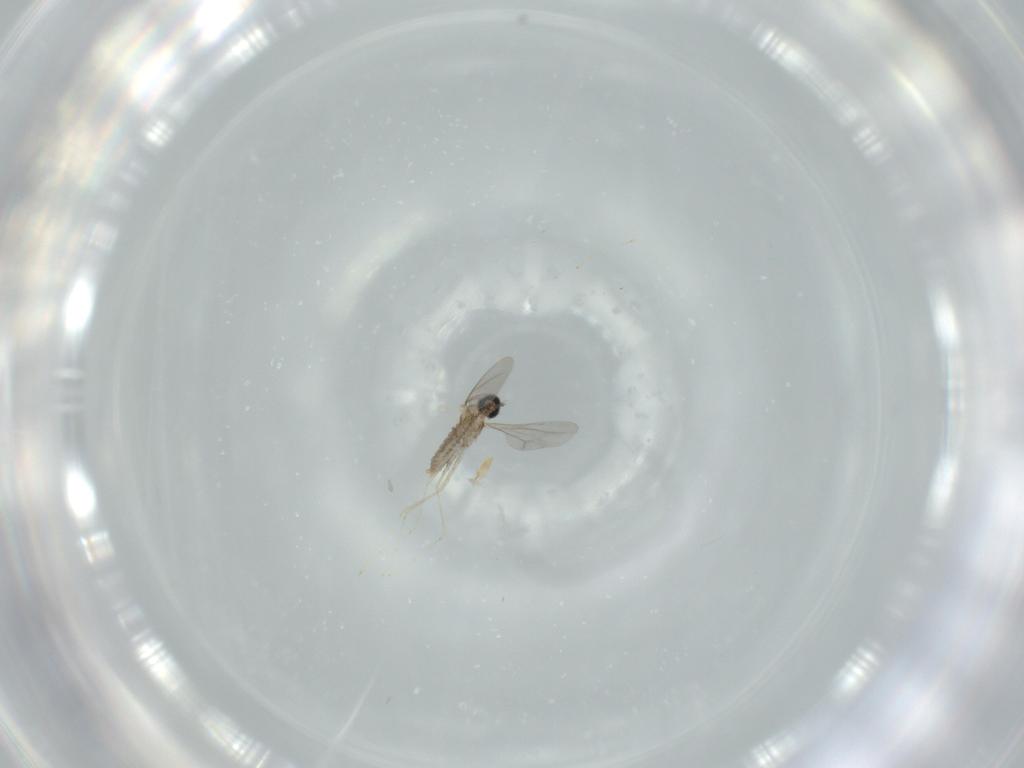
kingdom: Animalia
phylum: Arthropoda
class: Insecta
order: Diptera
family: Cecidomyiidae
